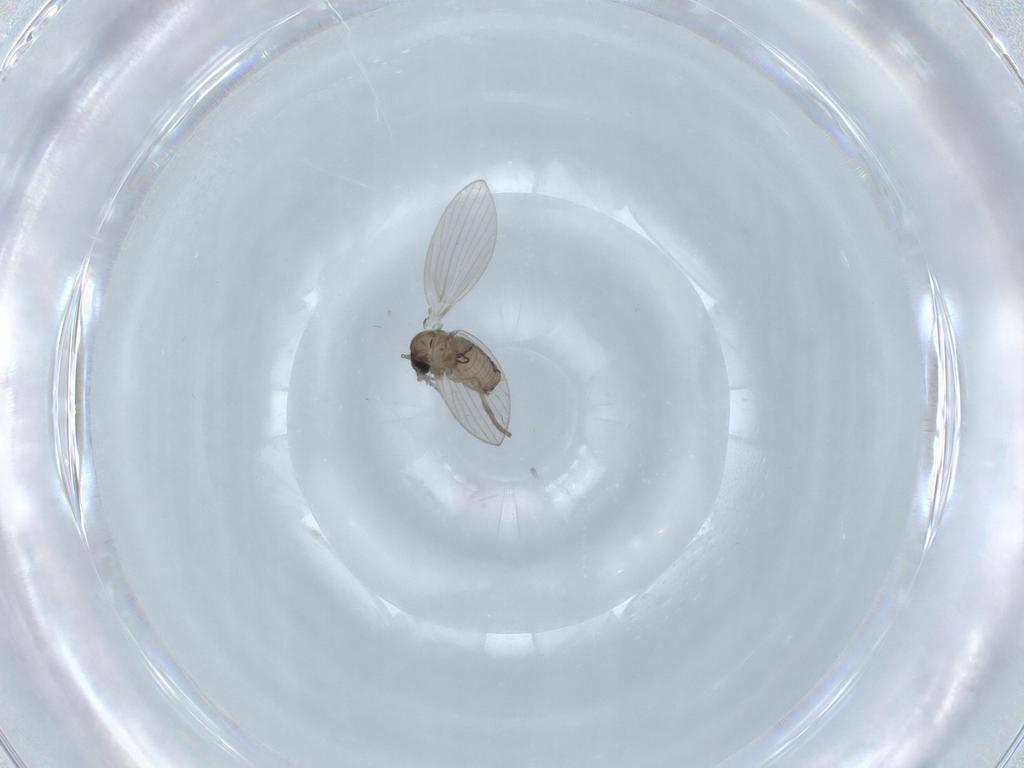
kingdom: Animalia
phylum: Arthropoda
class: Insecta
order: Diptera
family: Psychodidae
